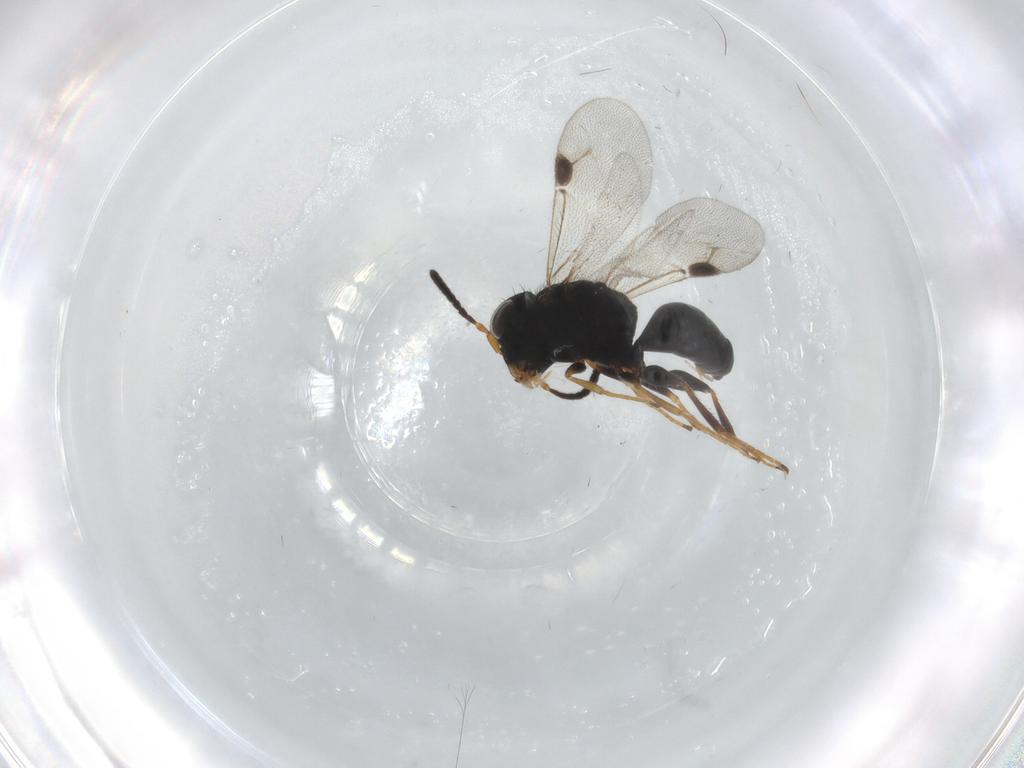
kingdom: Animalia
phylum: Arthropoda
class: Insecta
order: Hymenoptera
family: Dryinidae
